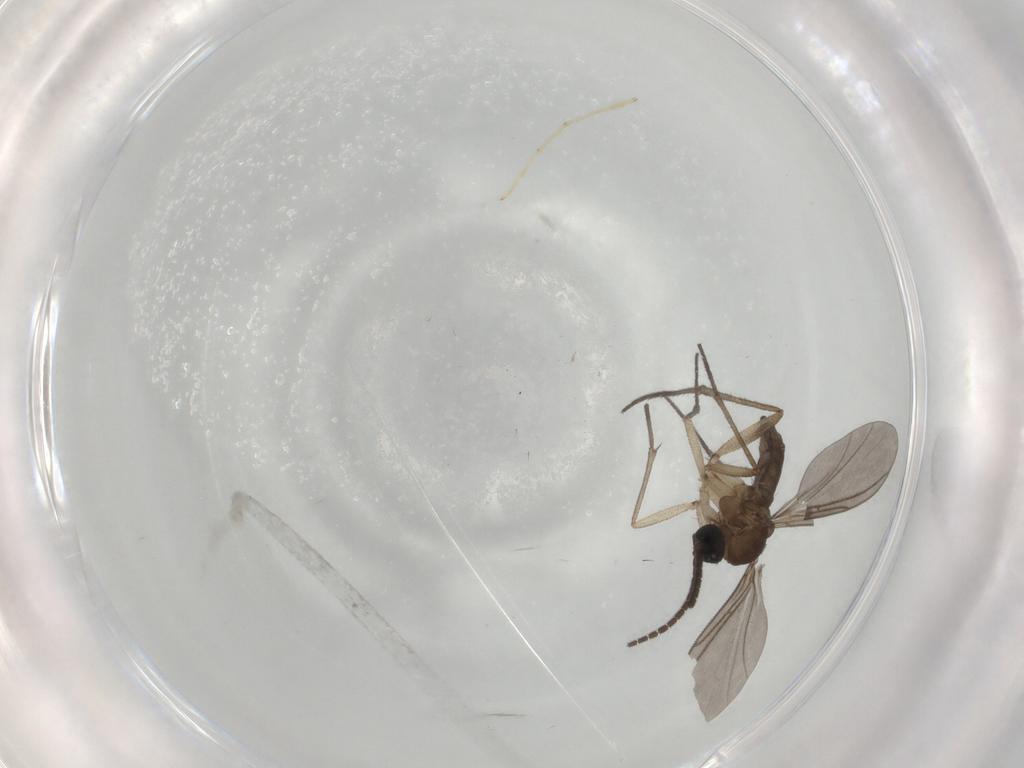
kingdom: Animalia
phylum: Arthropoda
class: Insecta
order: Diptera
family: Sciaridae
